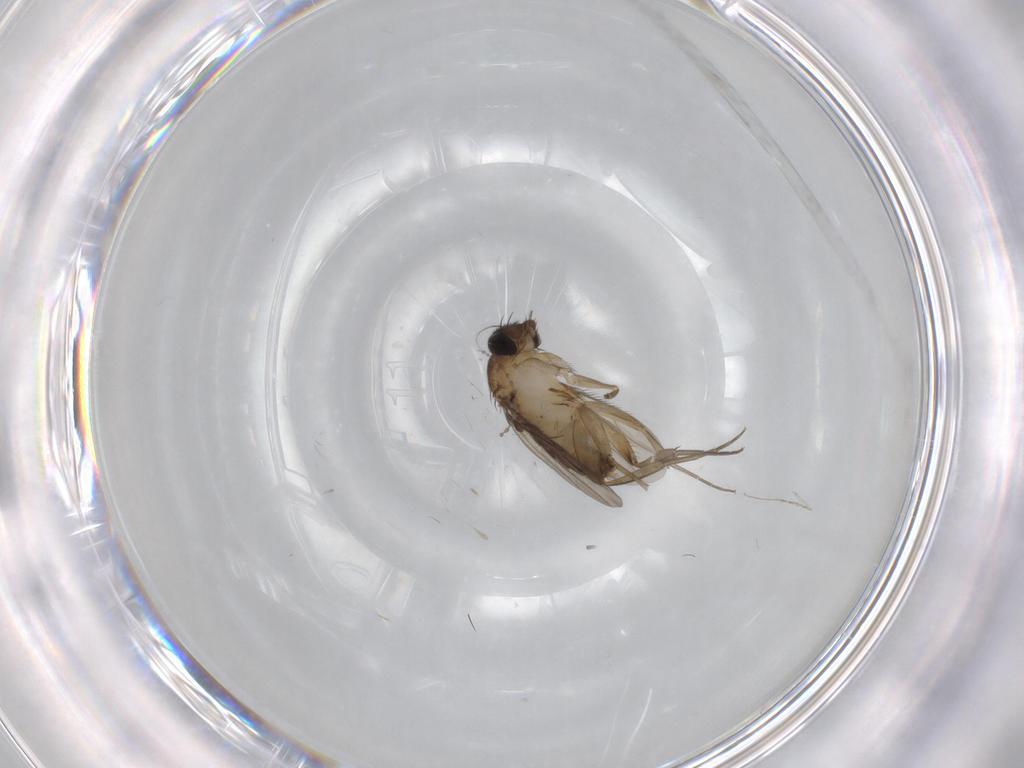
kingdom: Animalia
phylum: Arthropoda
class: Insecta
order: Diptera
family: Phoridae
